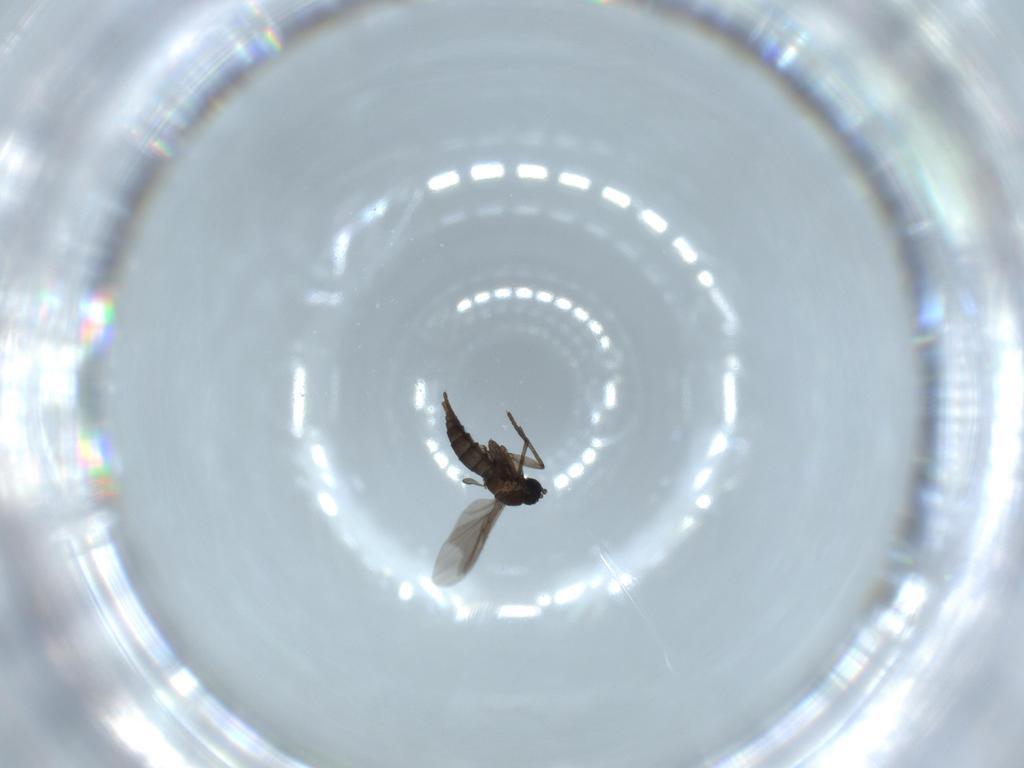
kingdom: Animalia
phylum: Arthropoda
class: Insecta
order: Diptera
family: Sciaridae
